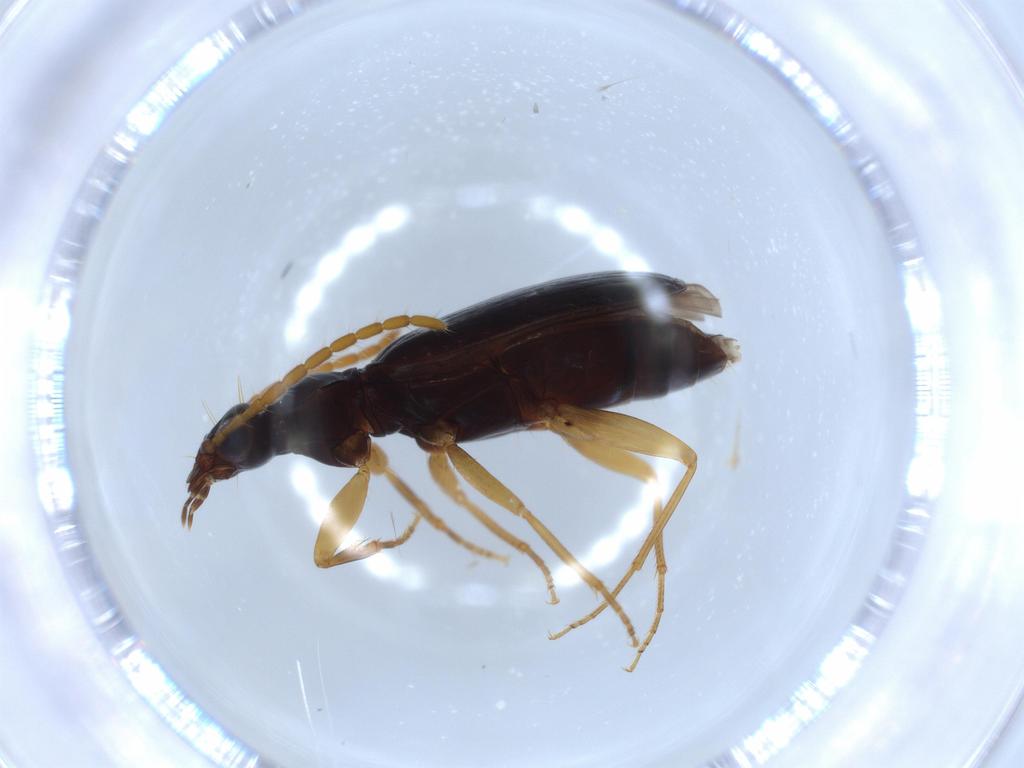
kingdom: Animalia
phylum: Arthropoda
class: Insecta
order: Coleoptera
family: Carabidae
